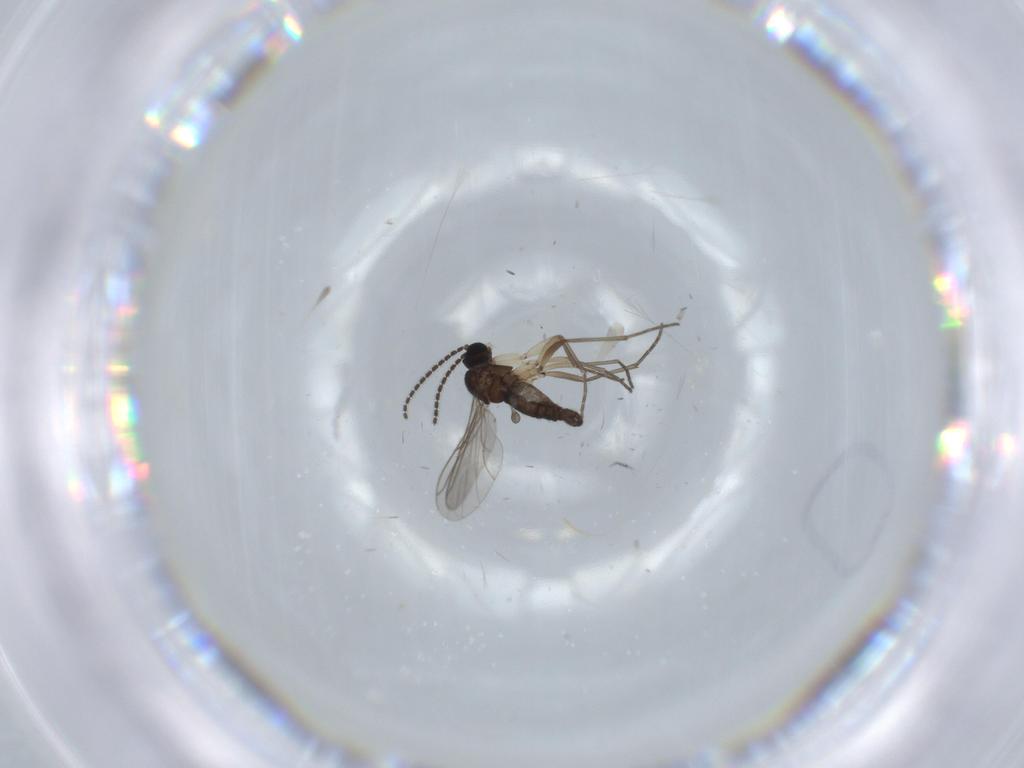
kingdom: Animalia
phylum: Arthropoda
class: Insecta
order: Diptera
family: Sciaridae
